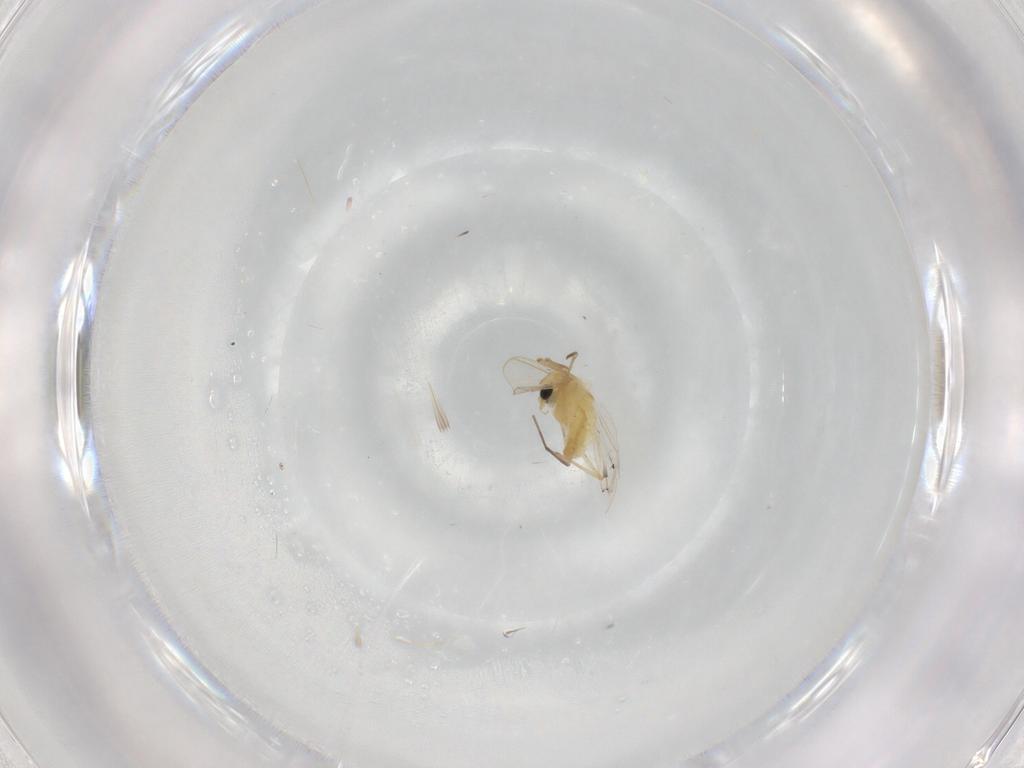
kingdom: Animalia
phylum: Arthropoda
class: Insecta
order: Diptera
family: Chironomidae
